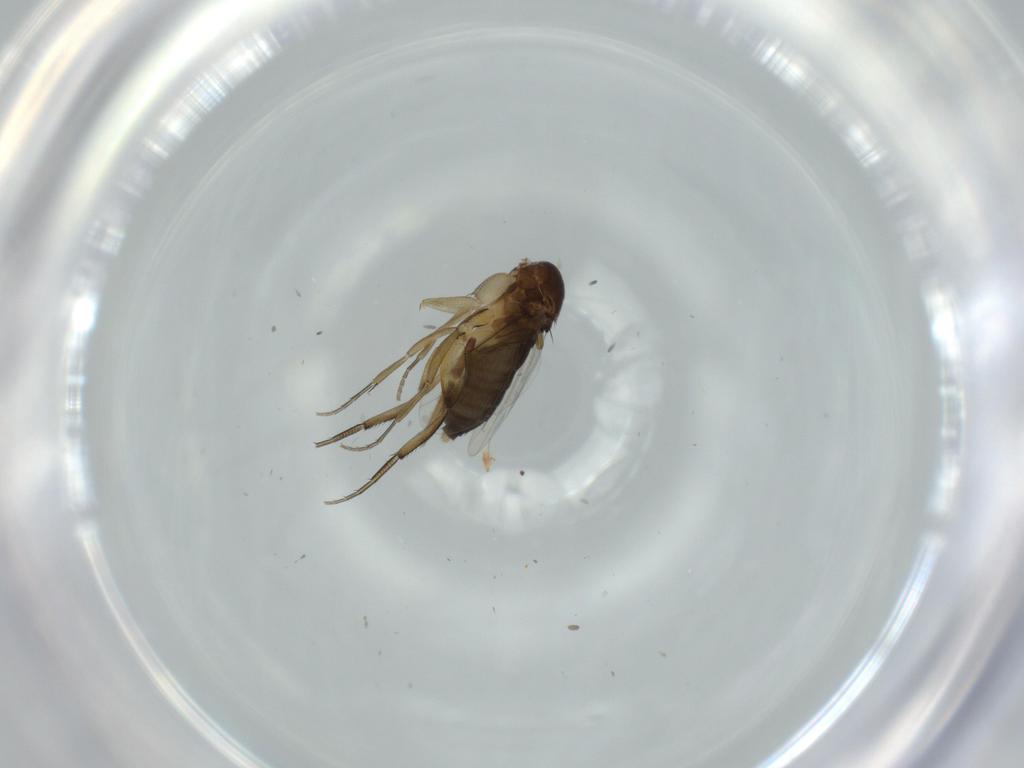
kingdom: Animalia
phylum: Arthropoda
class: Insecta
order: Diptera
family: Phoridae
